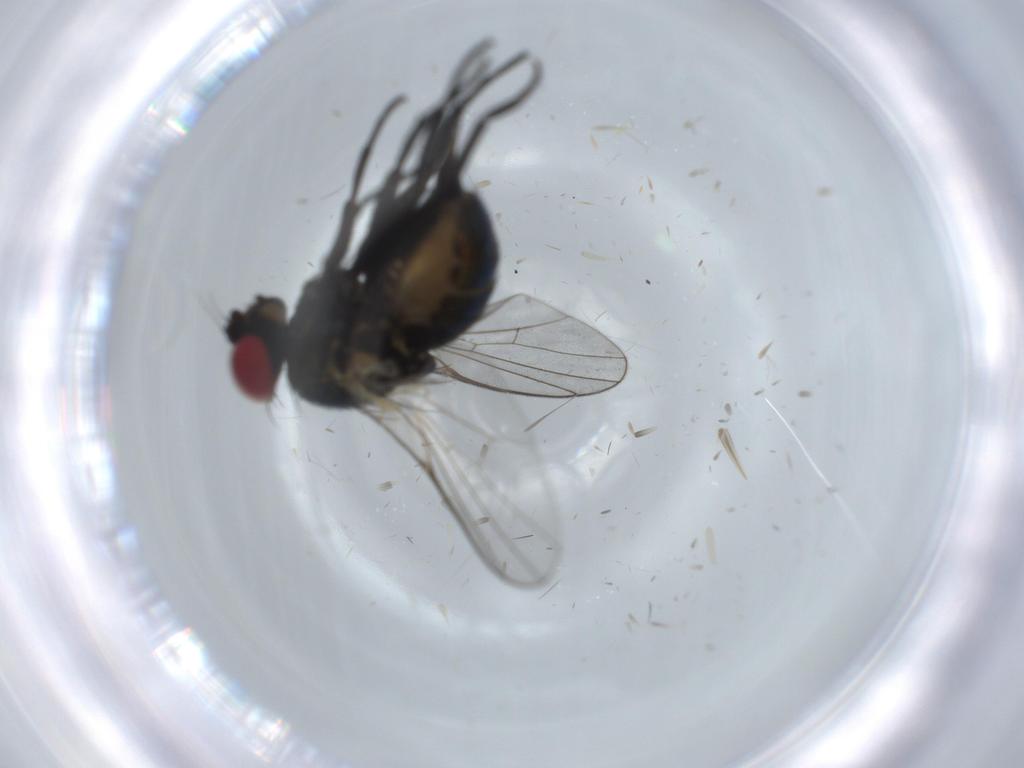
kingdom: Animalia
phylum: Arthropoda
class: Insecta
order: Diptera
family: Agromyzidae
